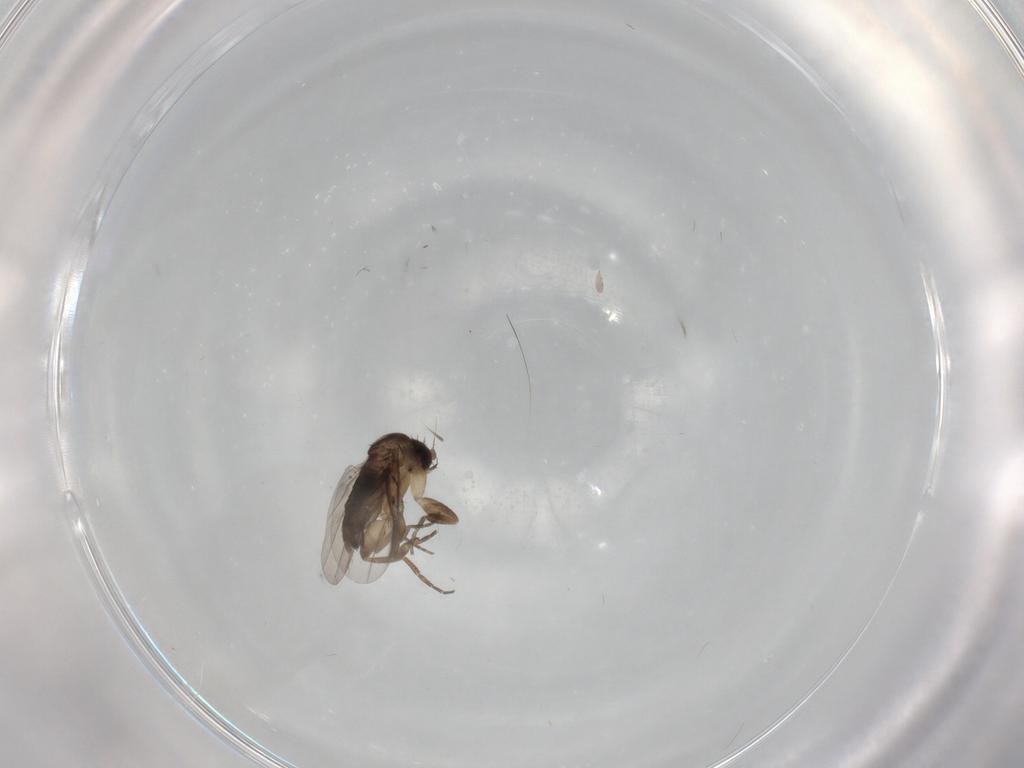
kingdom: Animalia
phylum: Arthropoda
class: Insecta
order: Diptera
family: Phoridae
